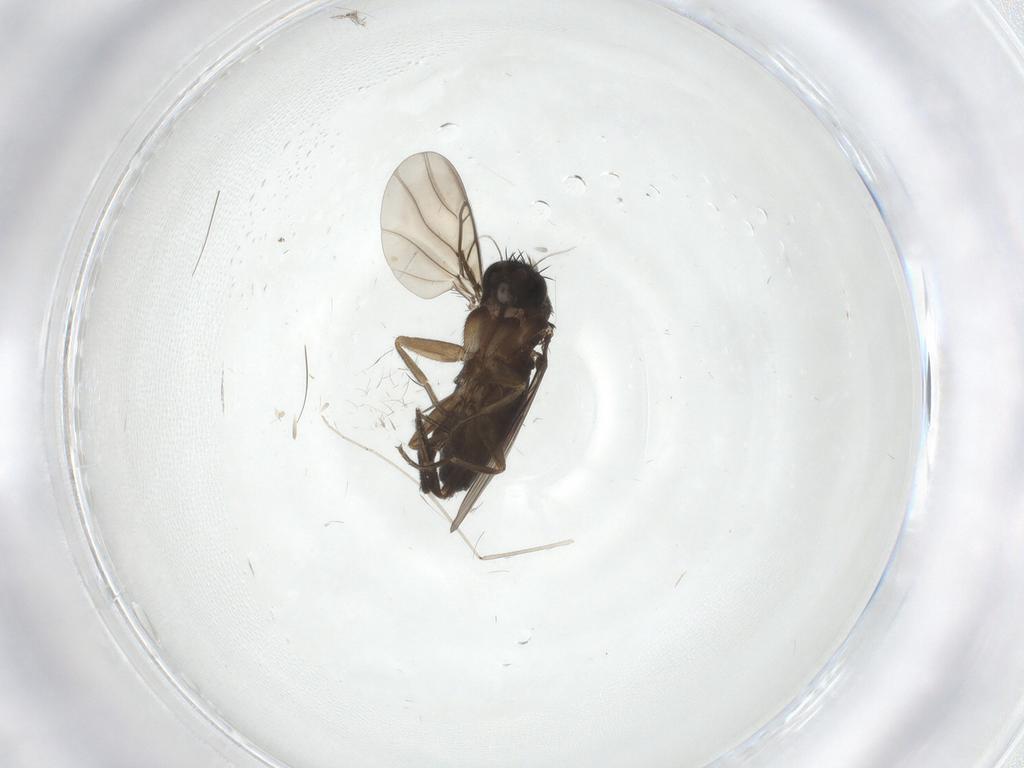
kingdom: Animalia
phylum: Arthropoda
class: Insecta
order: Diptera
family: Phoridae
